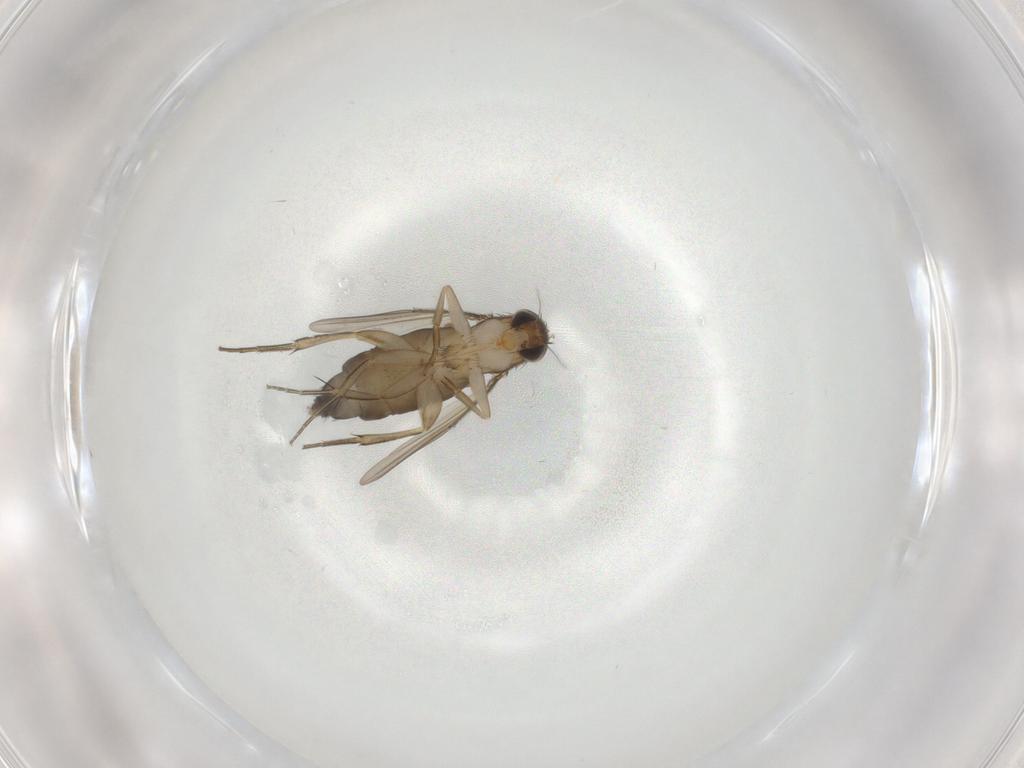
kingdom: Animalia
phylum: Arthropoda
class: Insecta
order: Diptera
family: Phoridae
